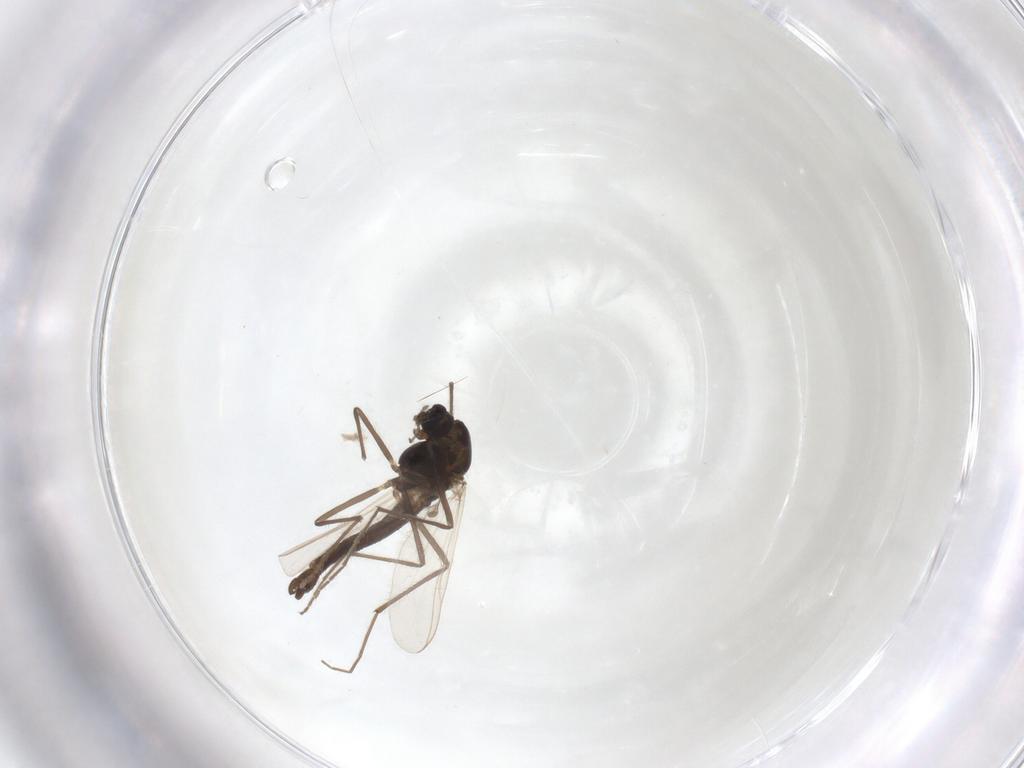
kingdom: Animalia
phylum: Arthropoda
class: Insecta
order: Diptera
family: Chironomidae
